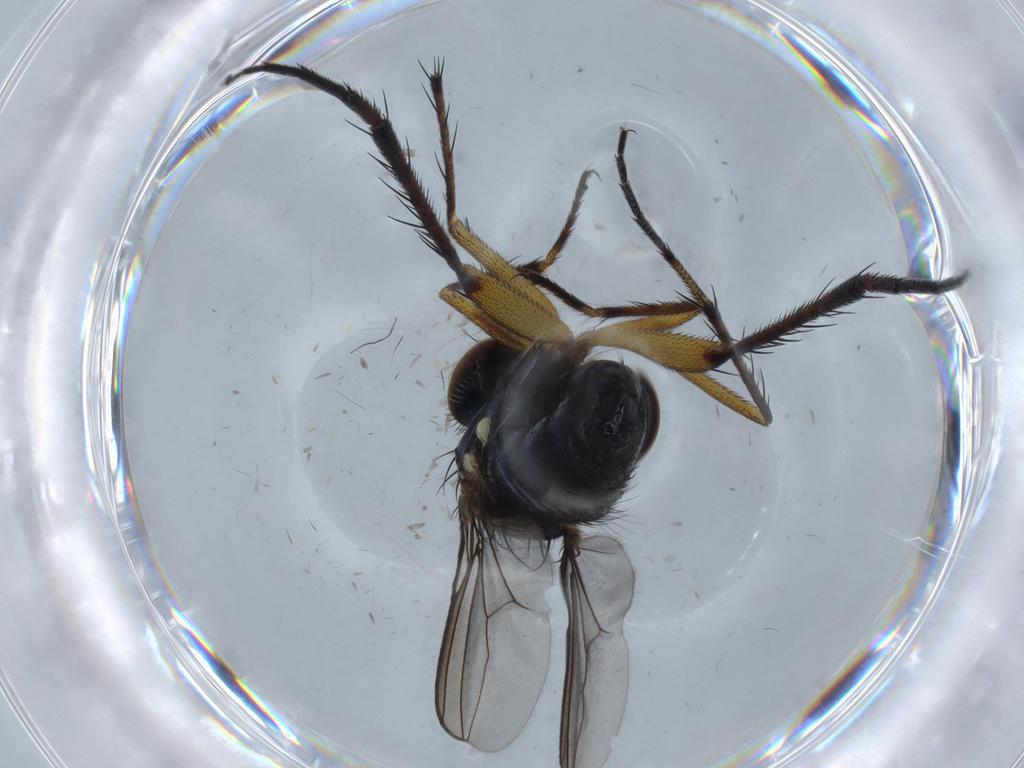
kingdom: Animalia
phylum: Arthropoda
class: Insecta
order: Diptera
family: Dolichopodidae
